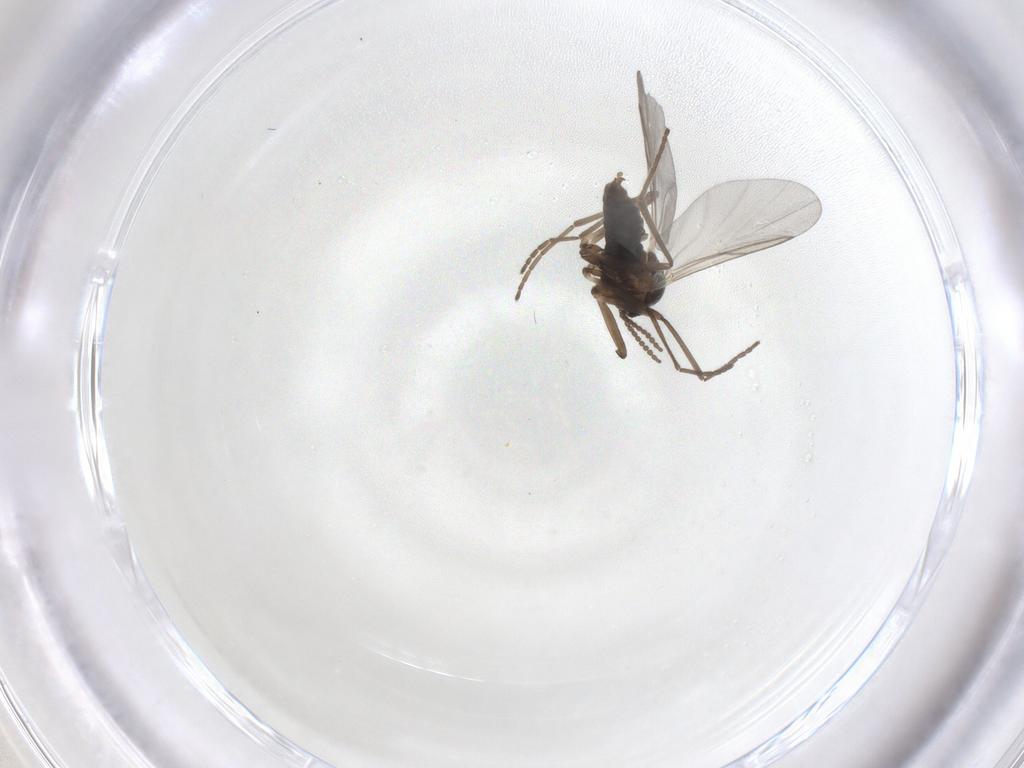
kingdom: Animalia
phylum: Arthropoda
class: Insecta
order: Diptera
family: Cecidomyiidae
